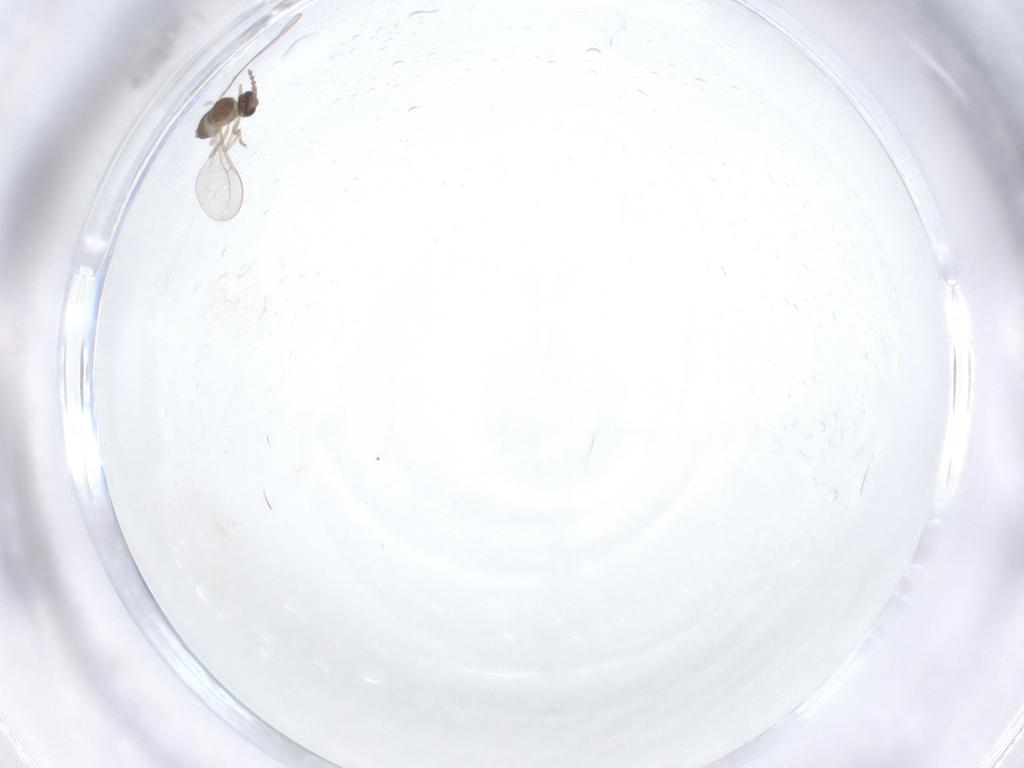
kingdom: Animalia
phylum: Arthropoda
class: Insecta
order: Diptera
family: Cecidomyiidae
